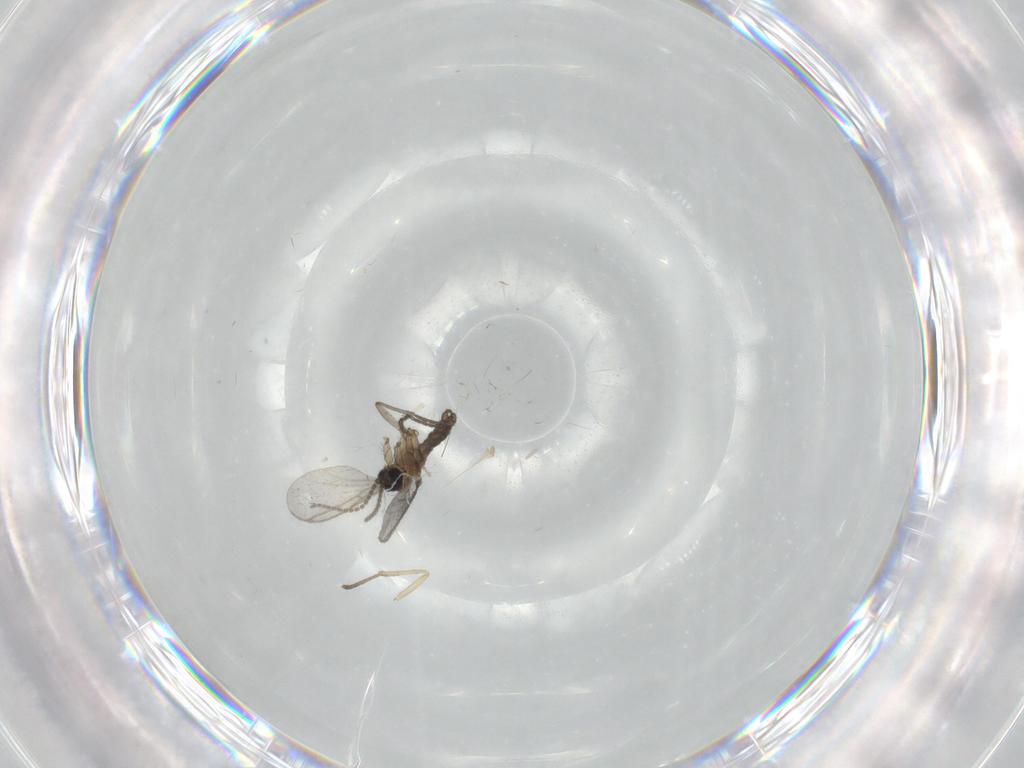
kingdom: Animalia
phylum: Arthropoda
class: Insecta
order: Diptera
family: Psychodidae
